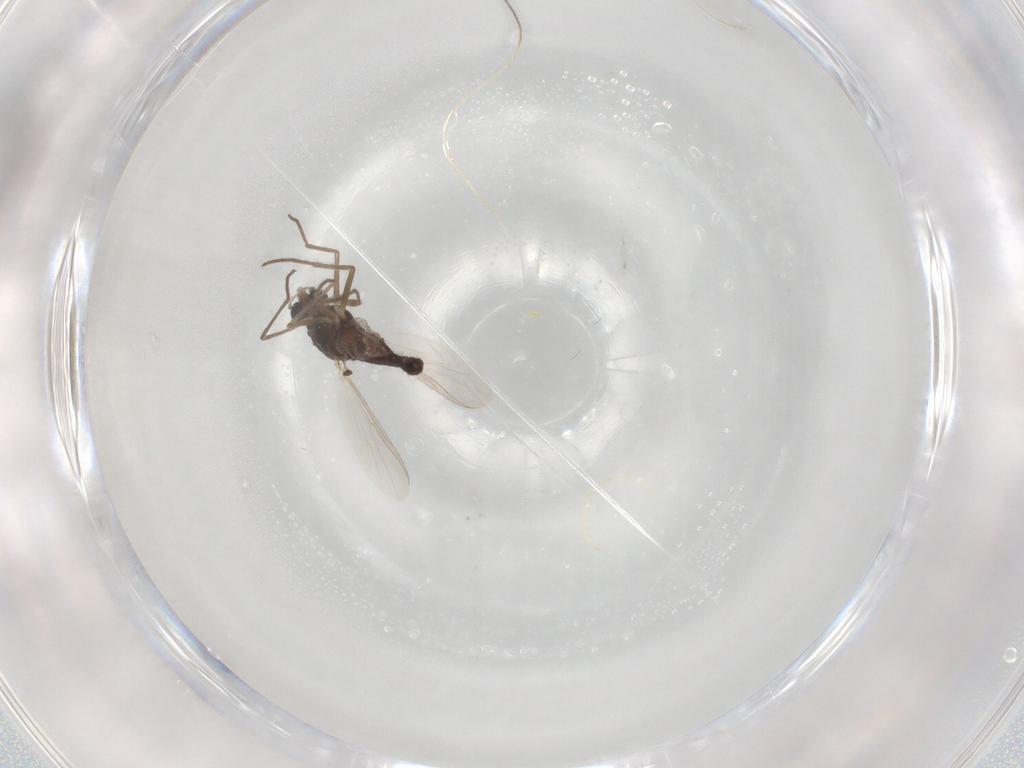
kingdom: Animalia
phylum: Arthropoda
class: Insecta
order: Diptera
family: Chironomidae
